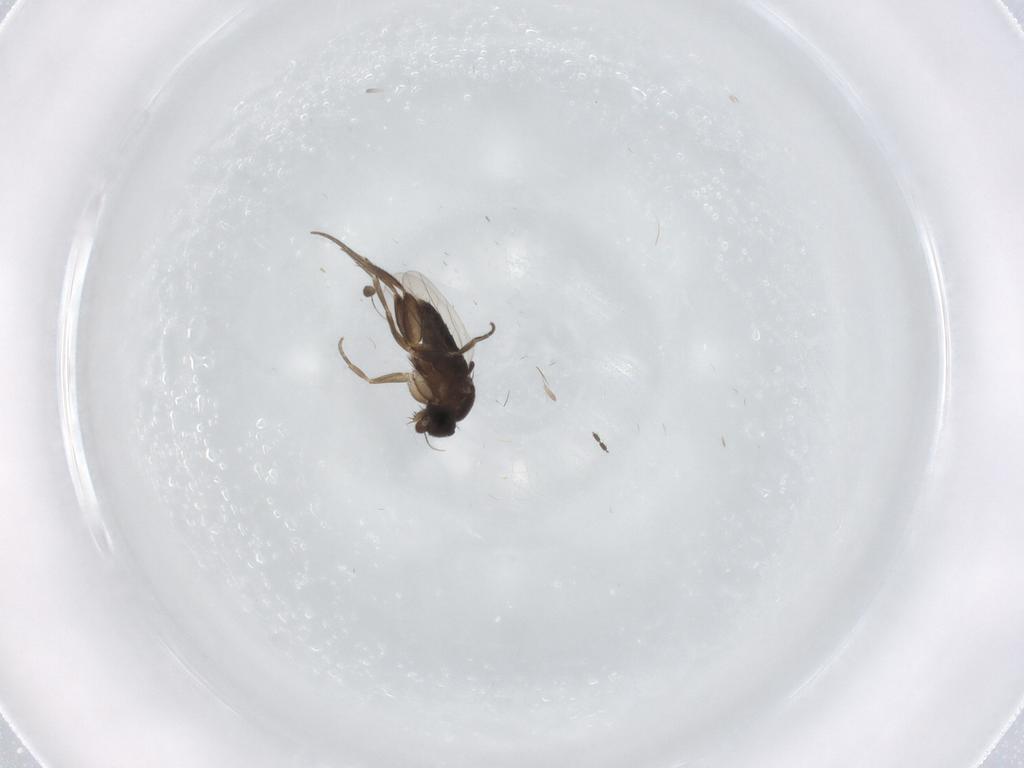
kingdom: Animalia
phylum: Arthropoda
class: Insecta
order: Diptera
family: Phoridae
